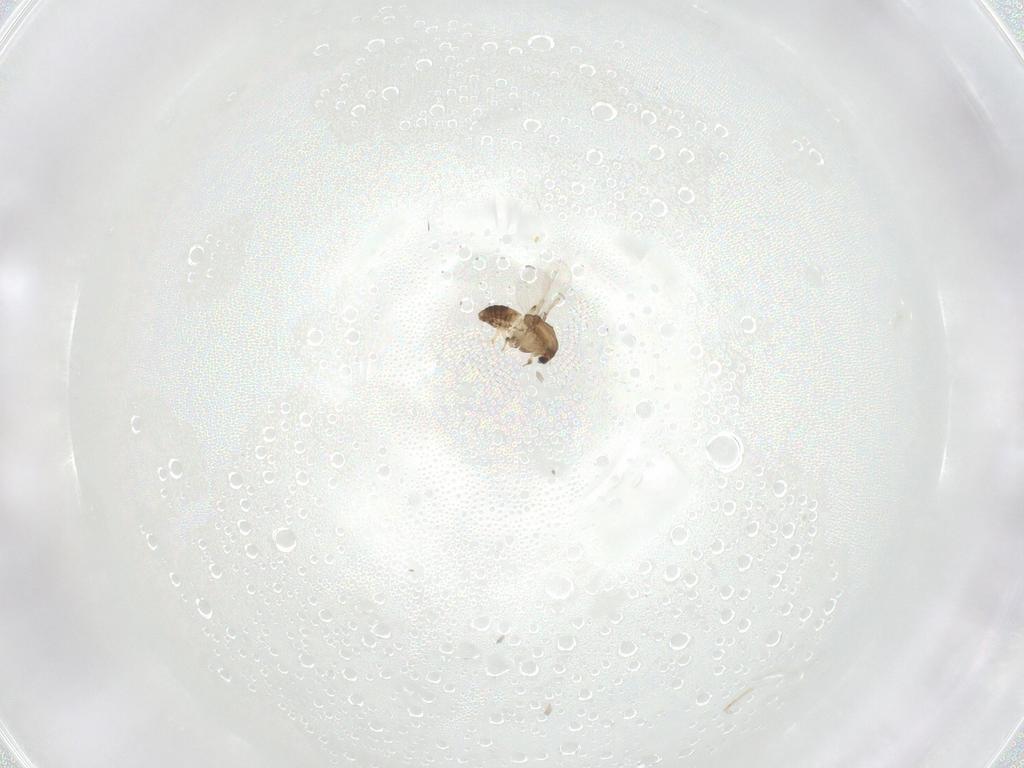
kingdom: Animalia
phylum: Arthropoda
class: Insecta
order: Diptera
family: Chironomidae
